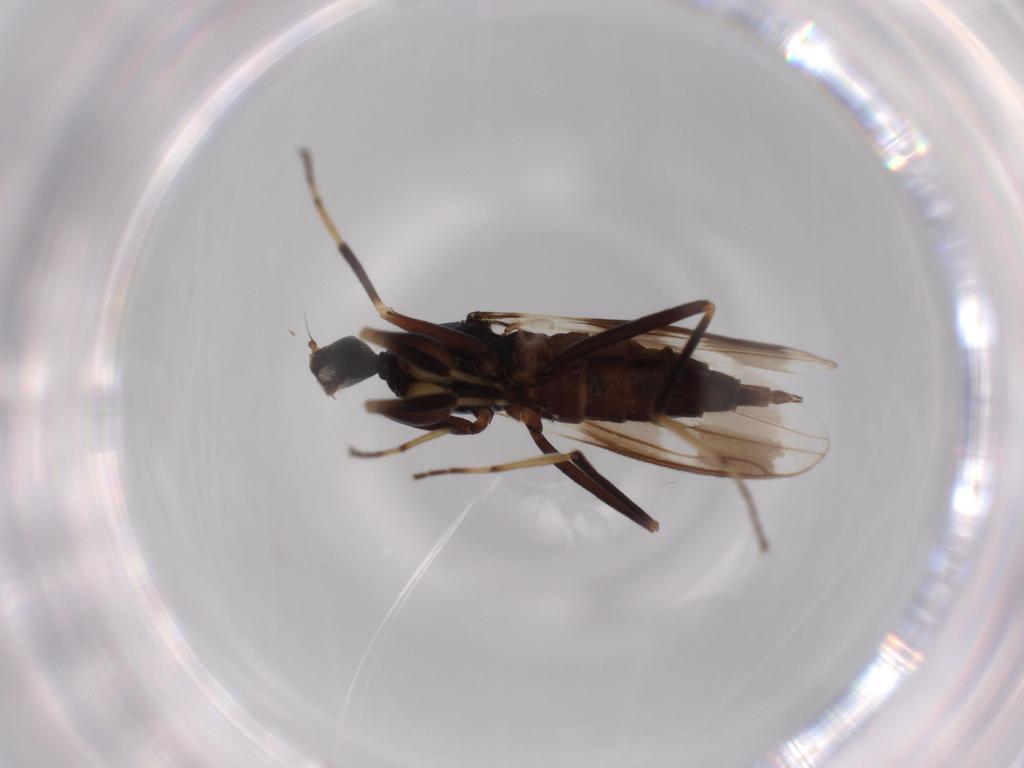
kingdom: Animalia
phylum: Arthropoda
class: Insecta
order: Diptera
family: Hybotidae
